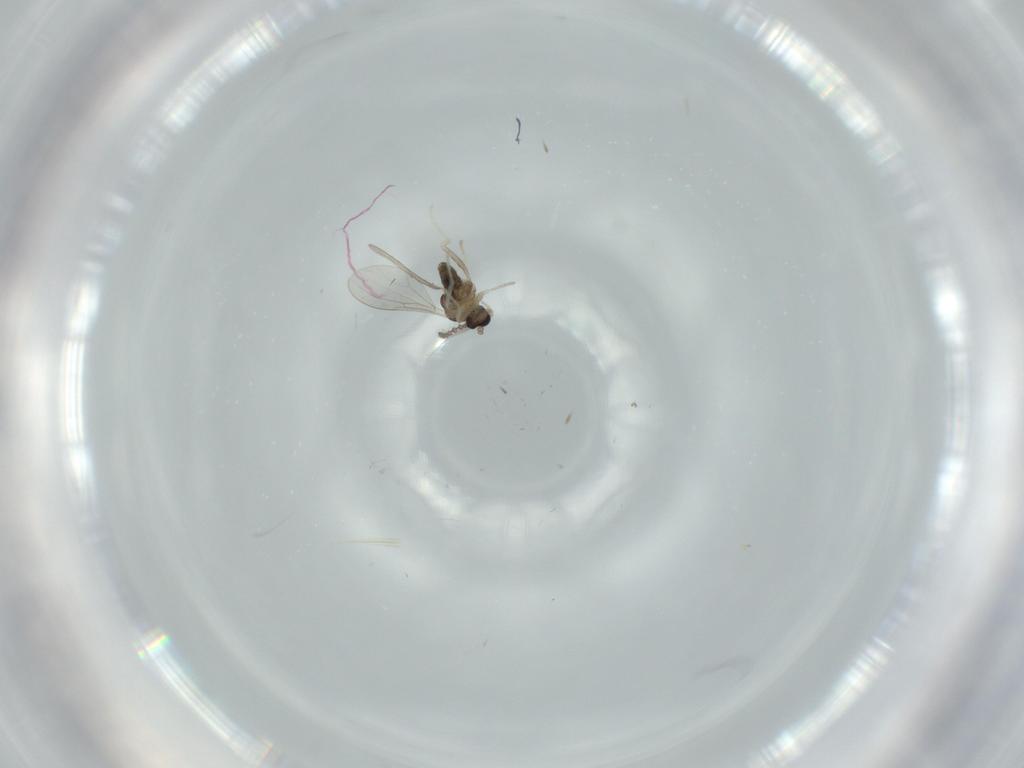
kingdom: Animalia
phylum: Arthropoda
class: Insecta
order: Diptera
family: Cecidomyiidae
